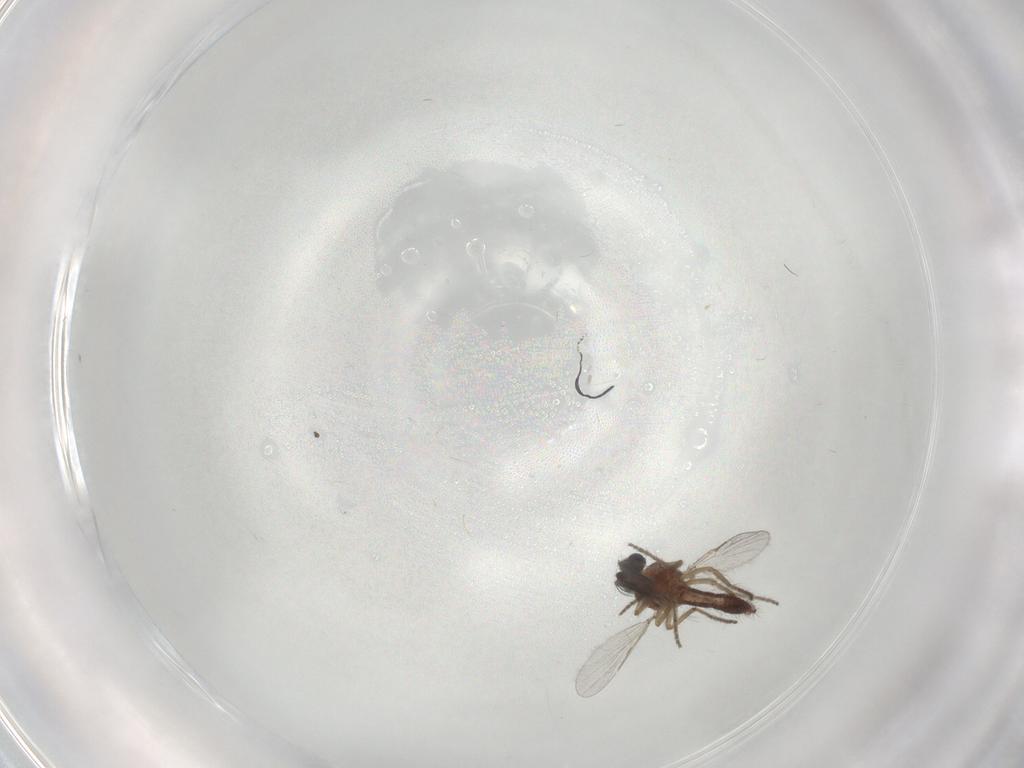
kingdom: Animalia
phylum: Arthropoda
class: Insecta
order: Diptera
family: Chironomidae
